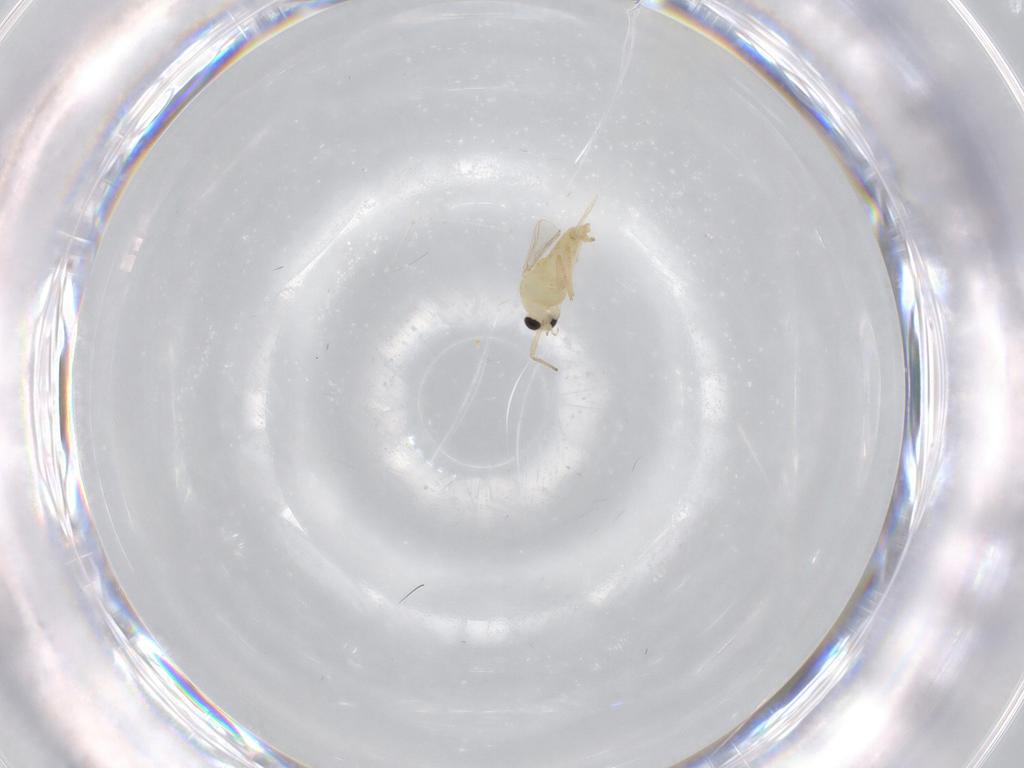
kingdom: Animalia
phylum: Arthropoda
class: Insecta
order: Diptera
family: Chironomidae
